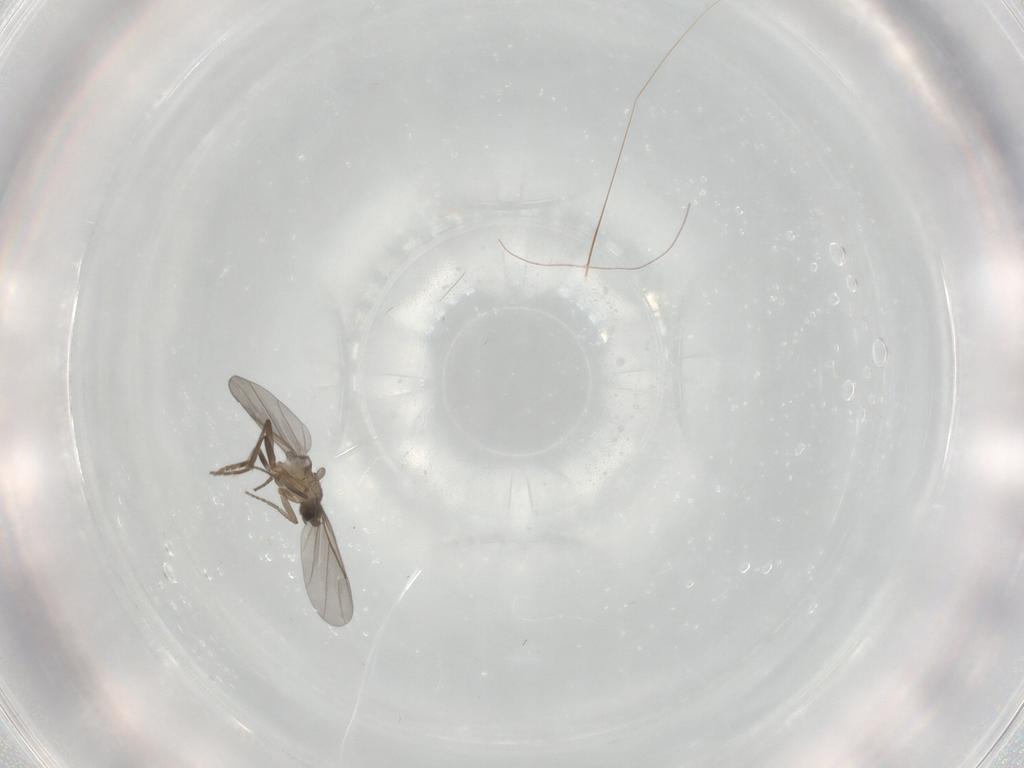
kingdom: Animalia
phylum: Arthropoda
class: Insecta
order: Diptera
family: Phoridae
